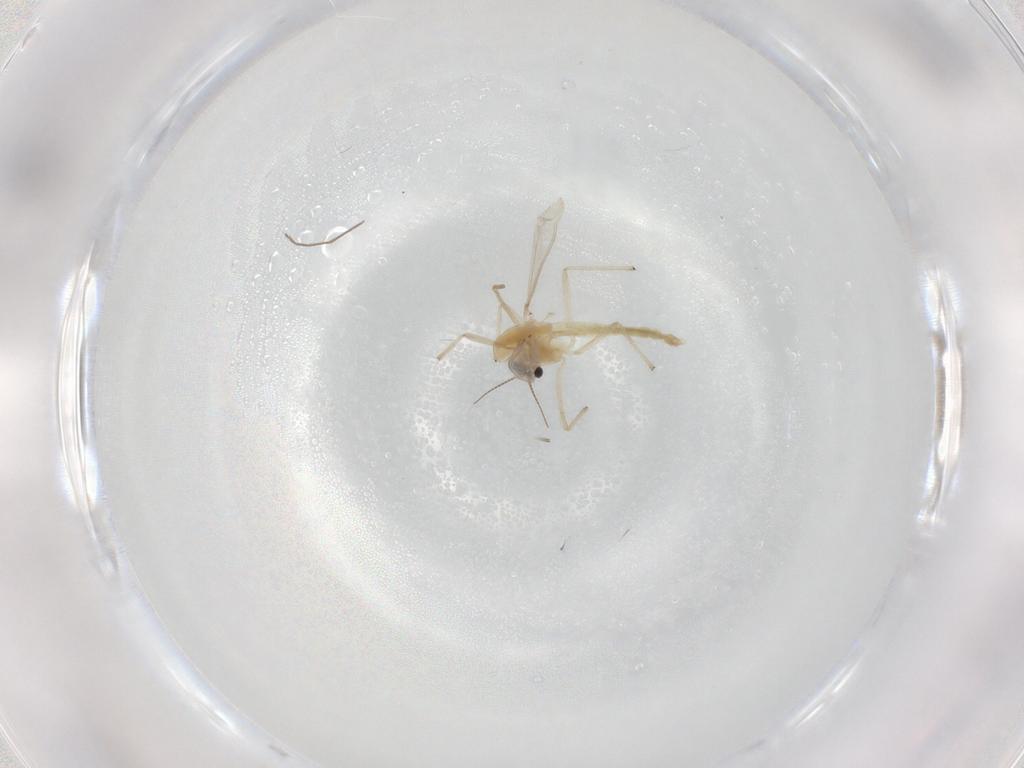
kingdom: Animalia
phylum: Arthropoda
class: Insecta
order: Diptera
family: Chironomidae
